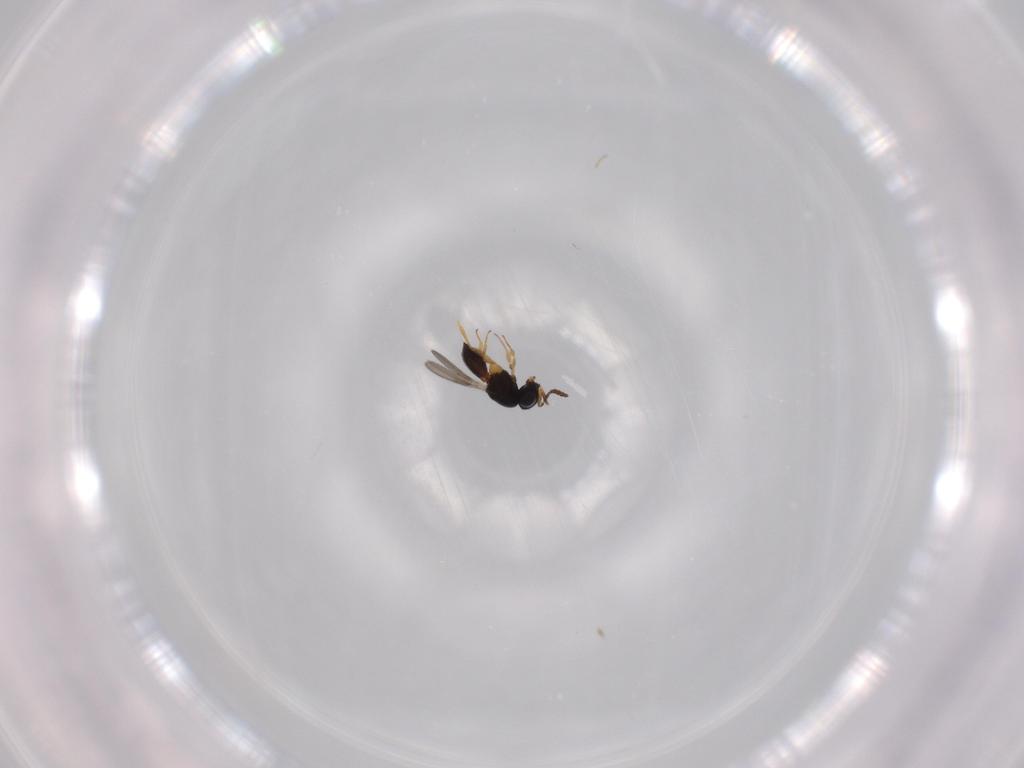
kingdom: Animalia
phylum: Arthropoda
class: Insecta
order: Hymenoptera
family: Scelionidae
